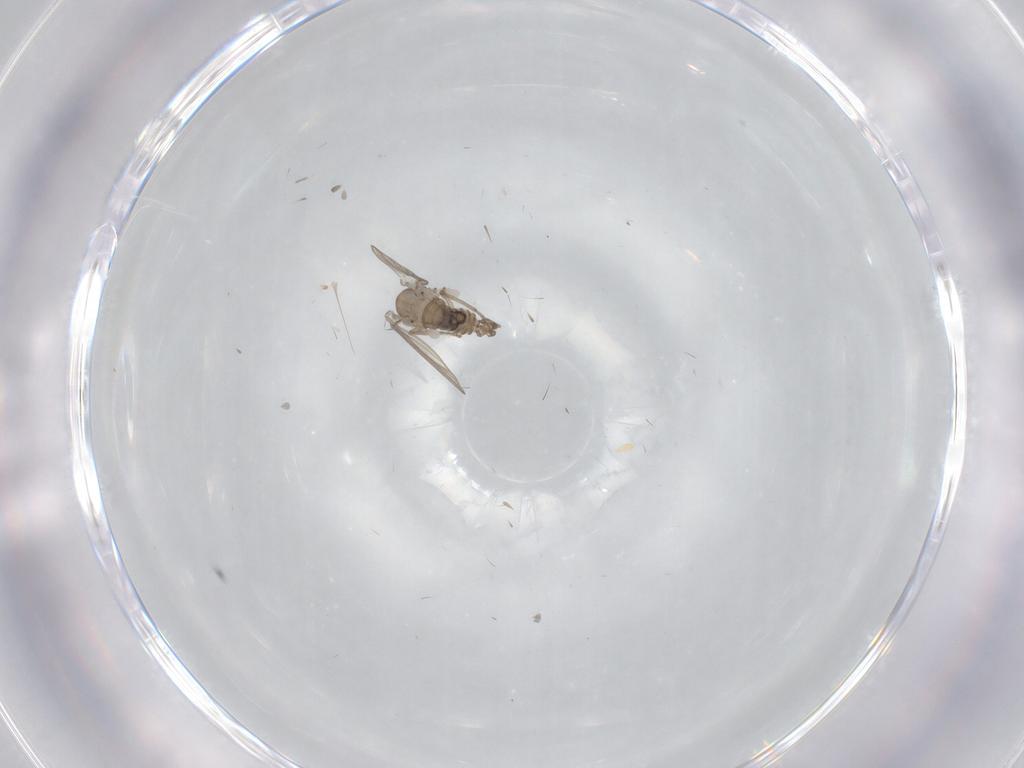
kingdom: Animalia
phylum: Arthropoda
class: Insecta
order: Diptera
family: Psychodidae
